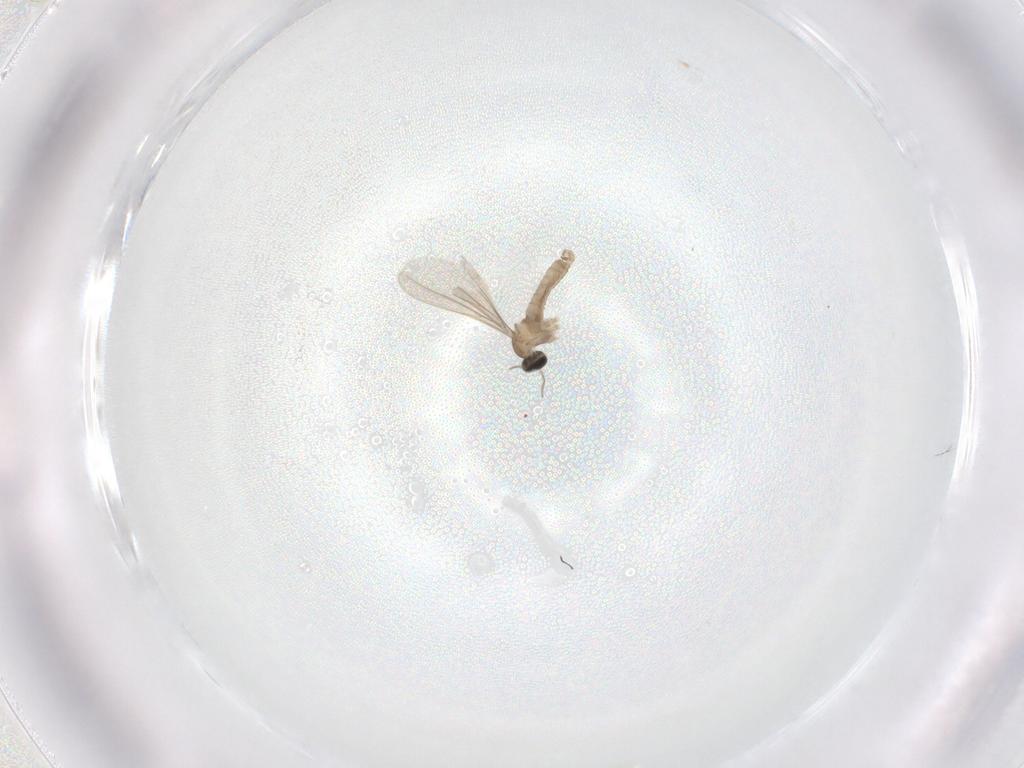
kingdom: Animalia
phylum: Arthropoda
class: Insecta
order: Diptera
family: Cecidomyiidae
